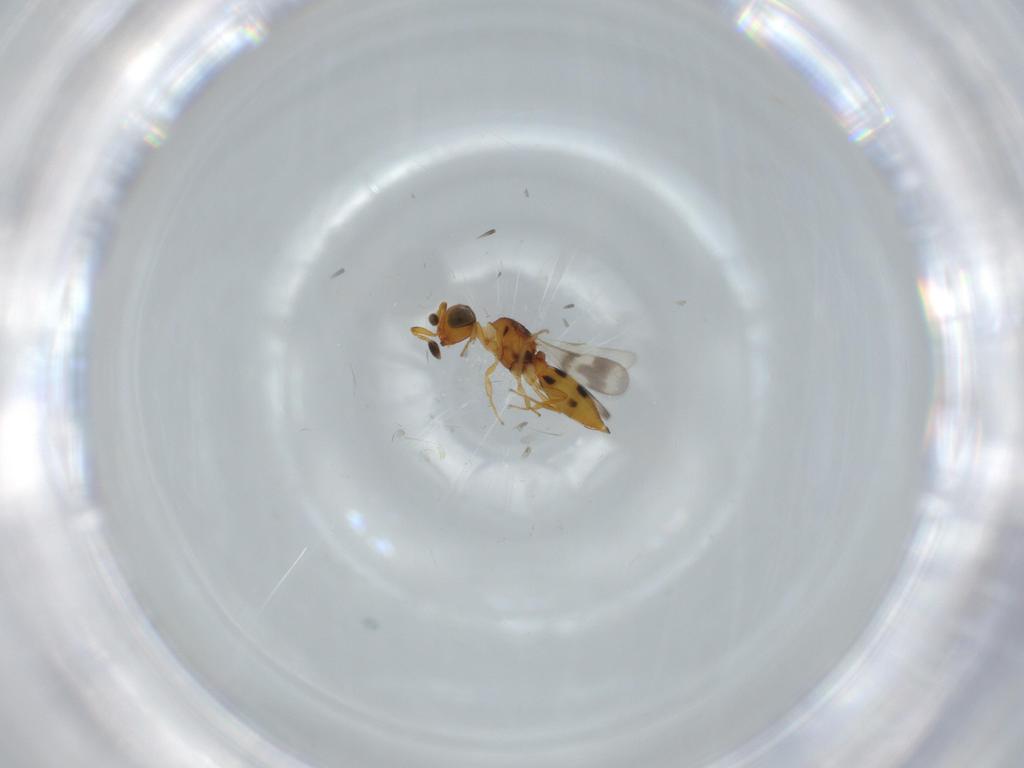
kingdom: Animalia
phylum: Arthropoda
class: Insecta
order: Hymenoptera
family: Scelionidae
